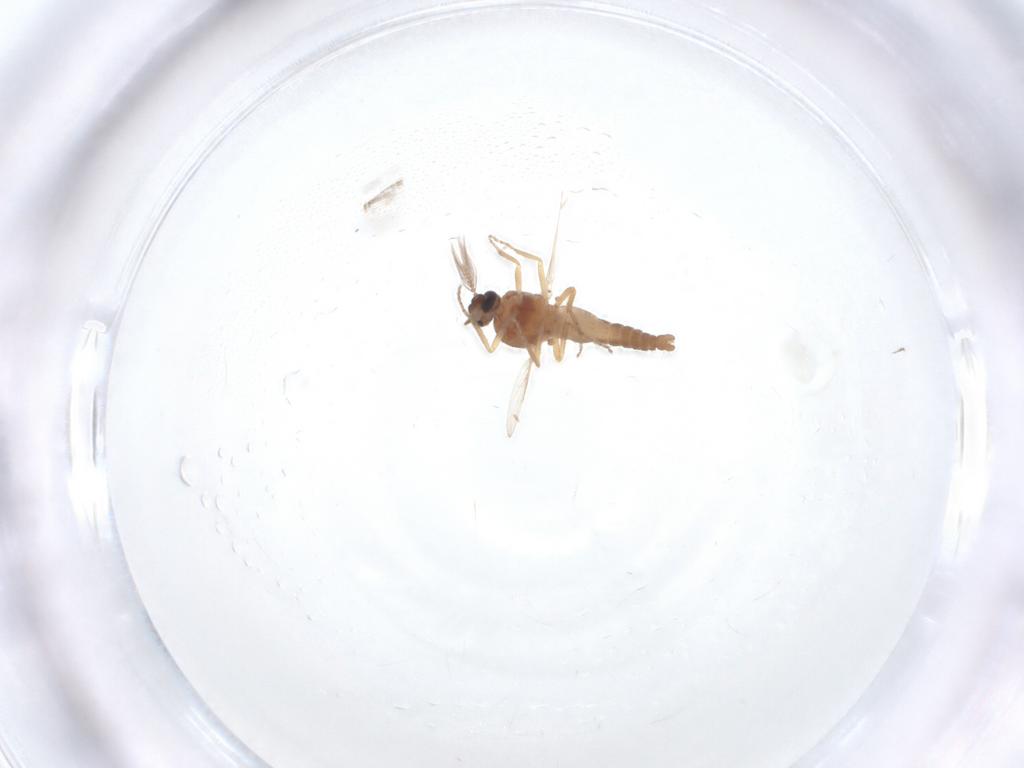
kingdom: Animalia
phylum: Arthropoda
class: Insecta
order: Diptera
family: Ceratopogonidae
